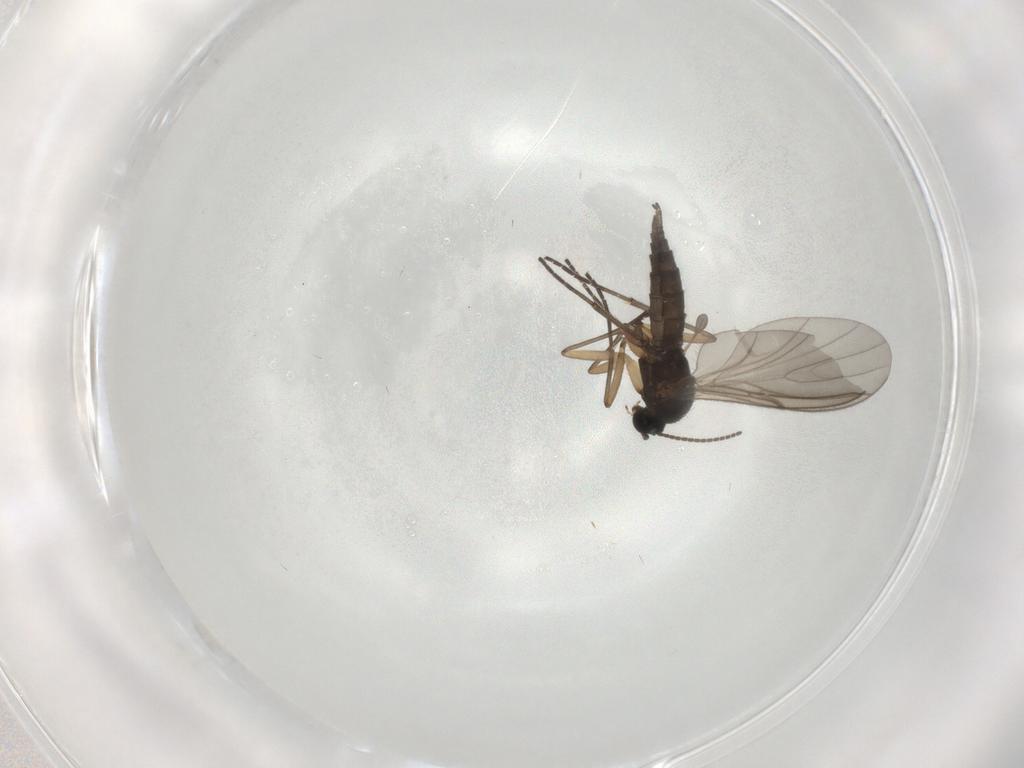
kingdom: Animalia
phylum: Arthropoda
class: Insecta
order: Diptera
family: Sciaridae
